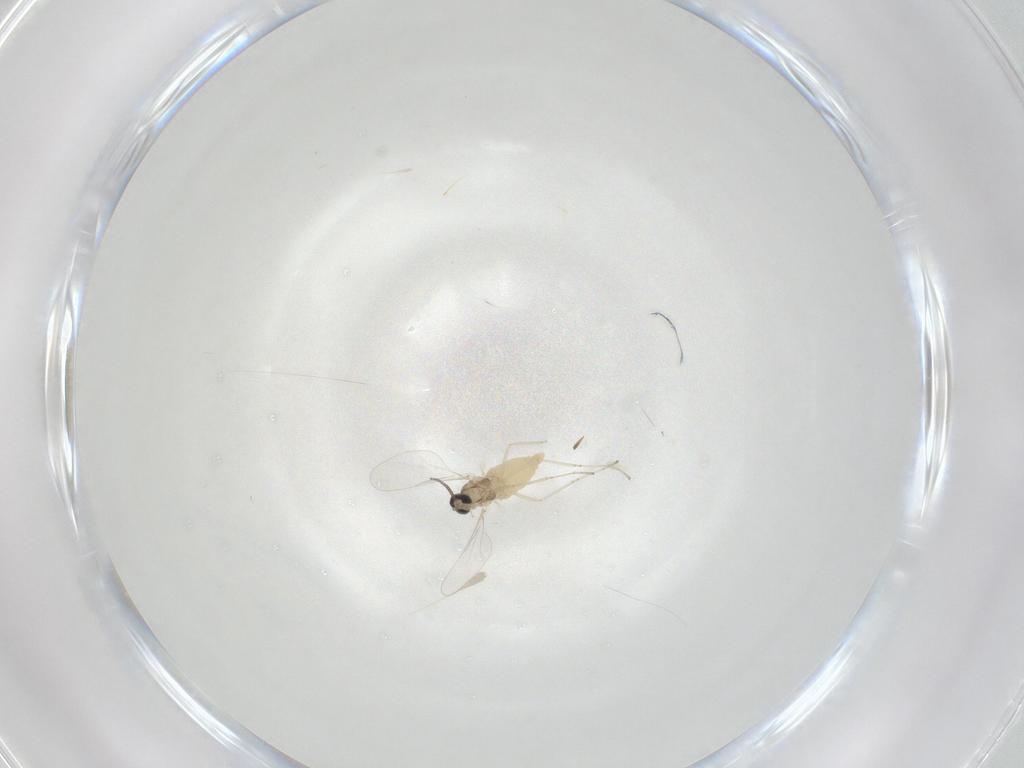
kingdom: Animalia
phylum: Arthropoda
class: Insecta
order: Diptera
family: Cecidomyiidae
